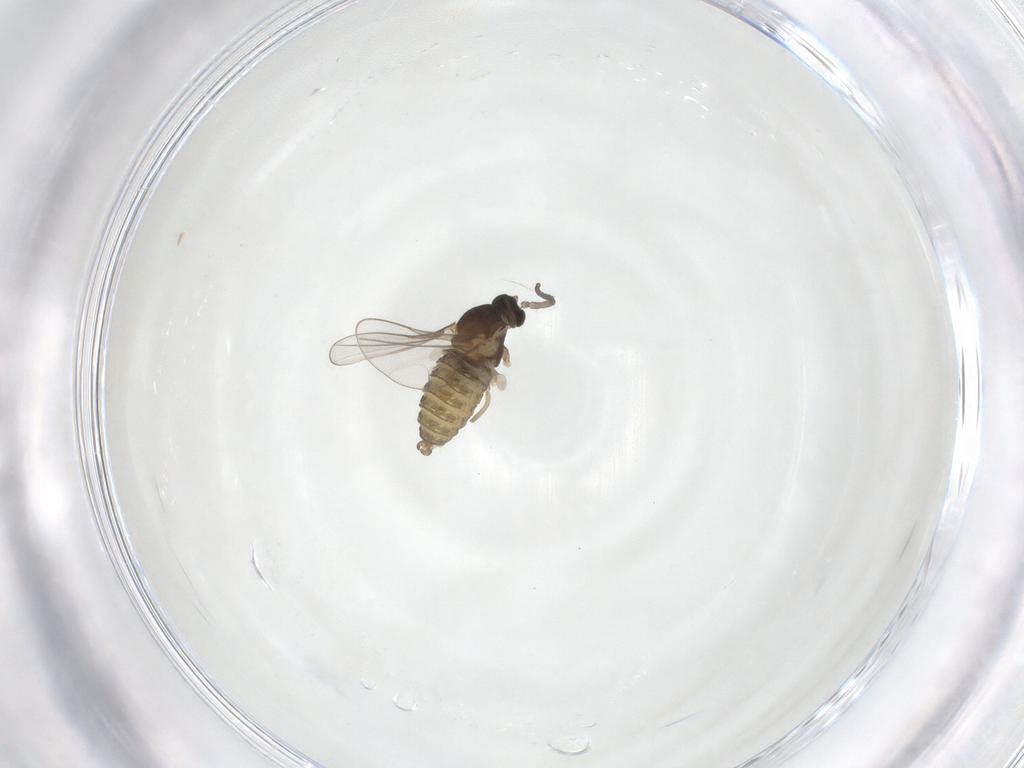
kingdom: Animalia
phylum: Arthropoda
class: Insecta
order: Diptera
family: Cecidomyiidae
